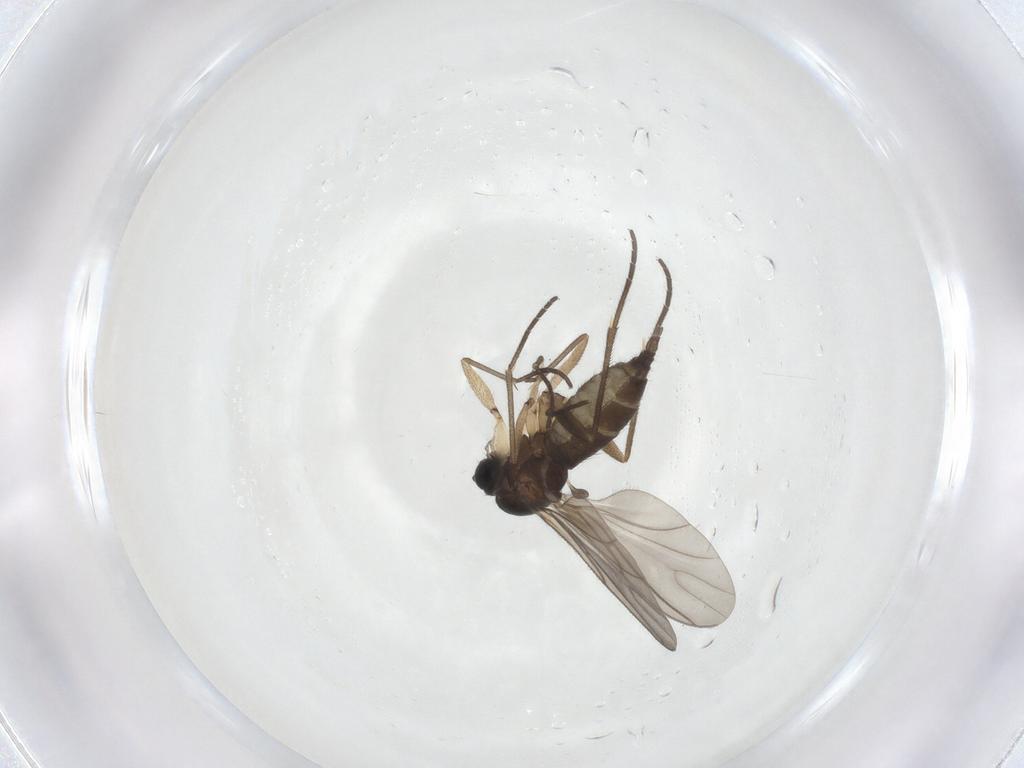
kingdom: Animalia
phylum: Arthropoda
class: Insecta
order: Diptera
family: Sciaridae
